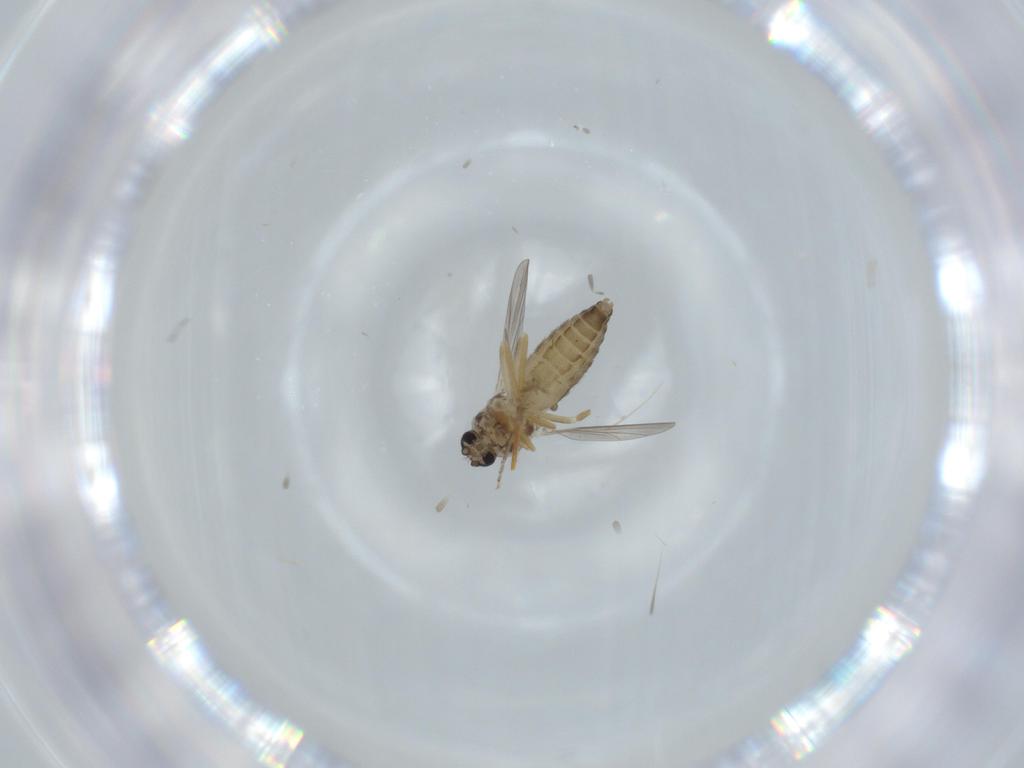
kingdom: Animalia
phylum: Arthropoda
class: Insecta
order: Diptera
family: Ceratopogonidae
